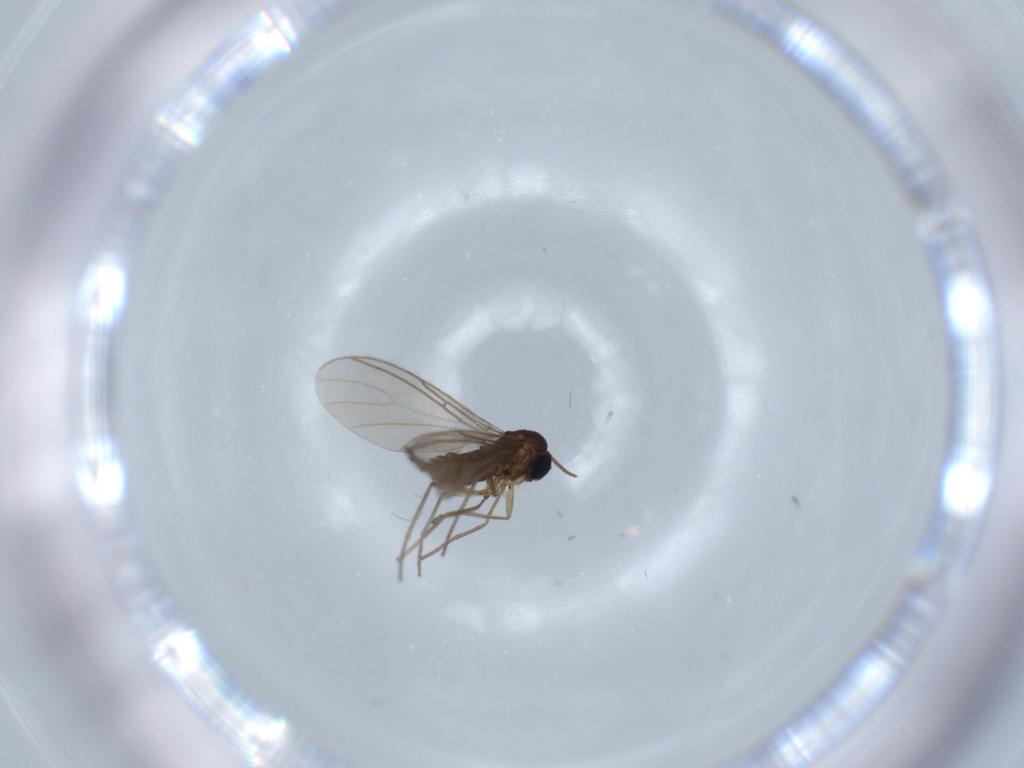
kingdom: Animalia
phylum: Arthropoda
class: Insecta
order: Diptera
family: Sciaridae
